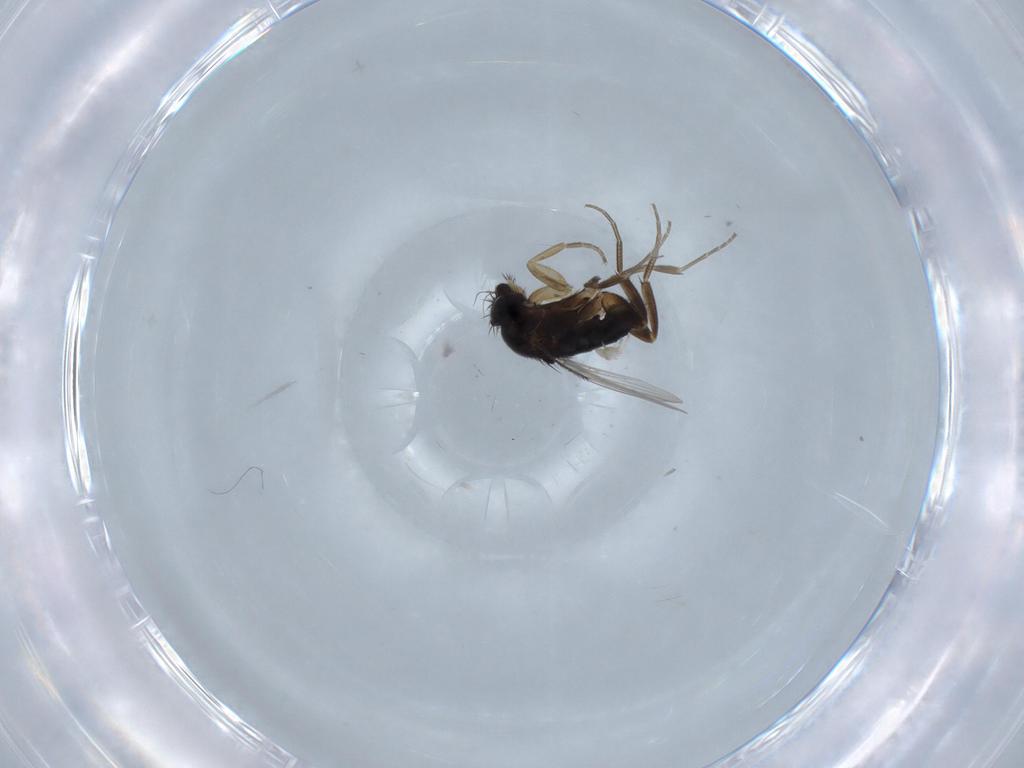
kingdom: Animalia
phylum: Arthropoda
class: Insecta
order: Diptera
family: Phoridae
